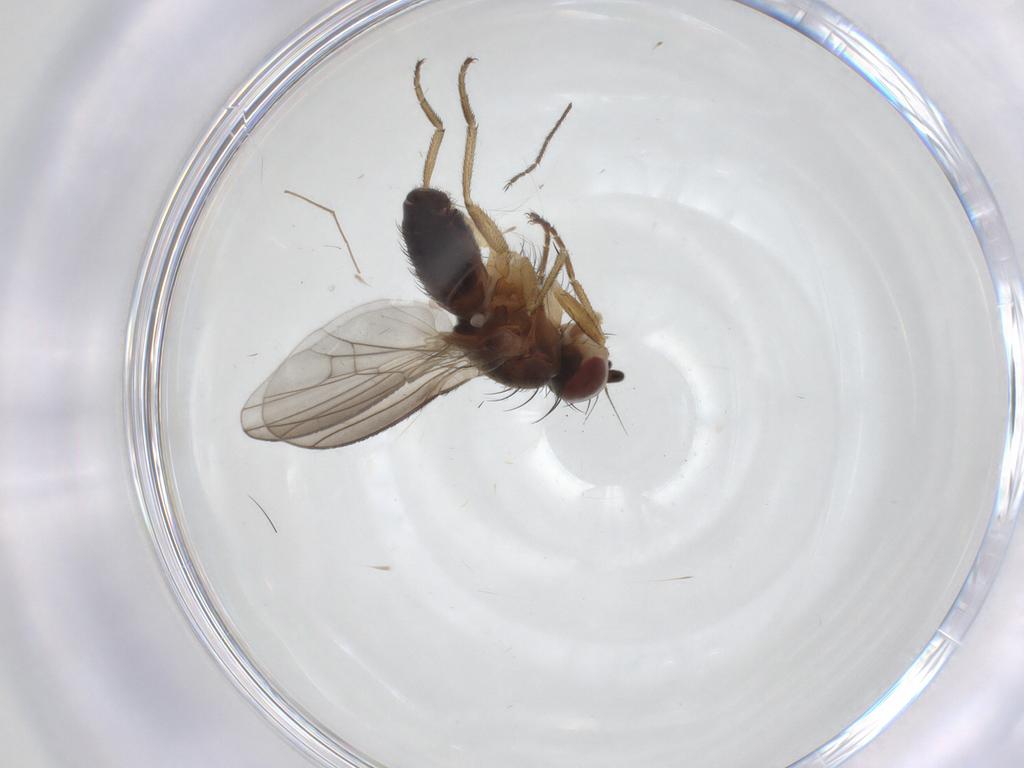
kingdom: Animalia
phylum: Arthropoda
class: Insecta
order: Diptera
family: Heleomyzidae
